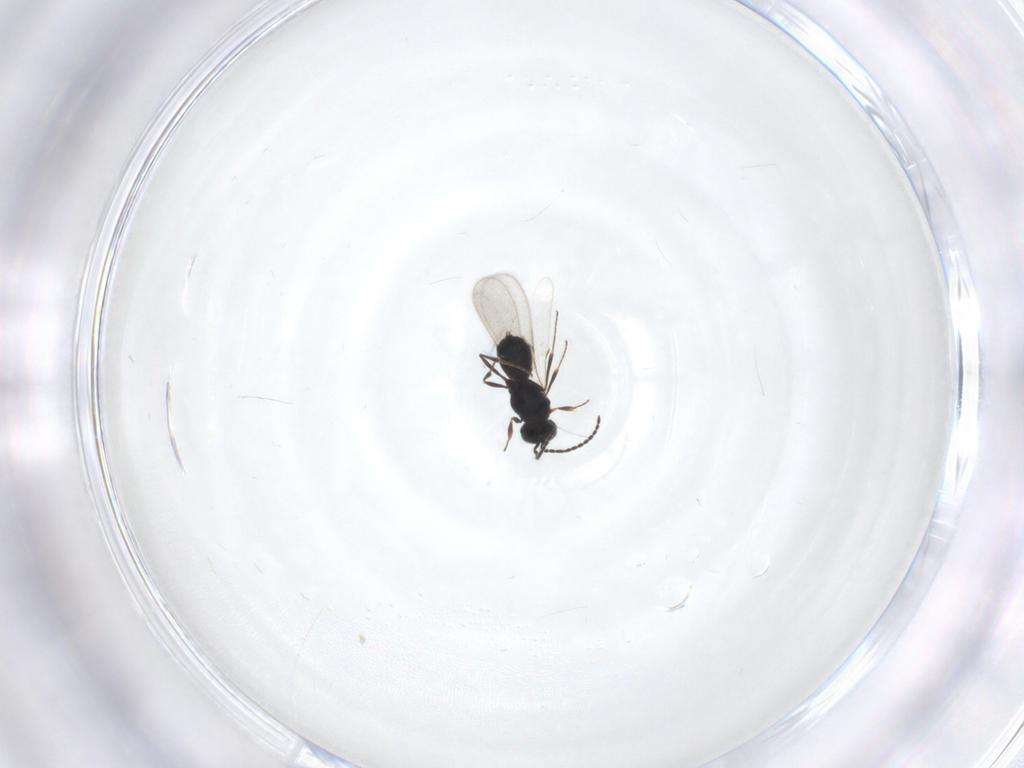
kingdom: Animalia
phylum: Arthropoda
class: Insecta
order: Hymenoptera
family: Scelionidae
